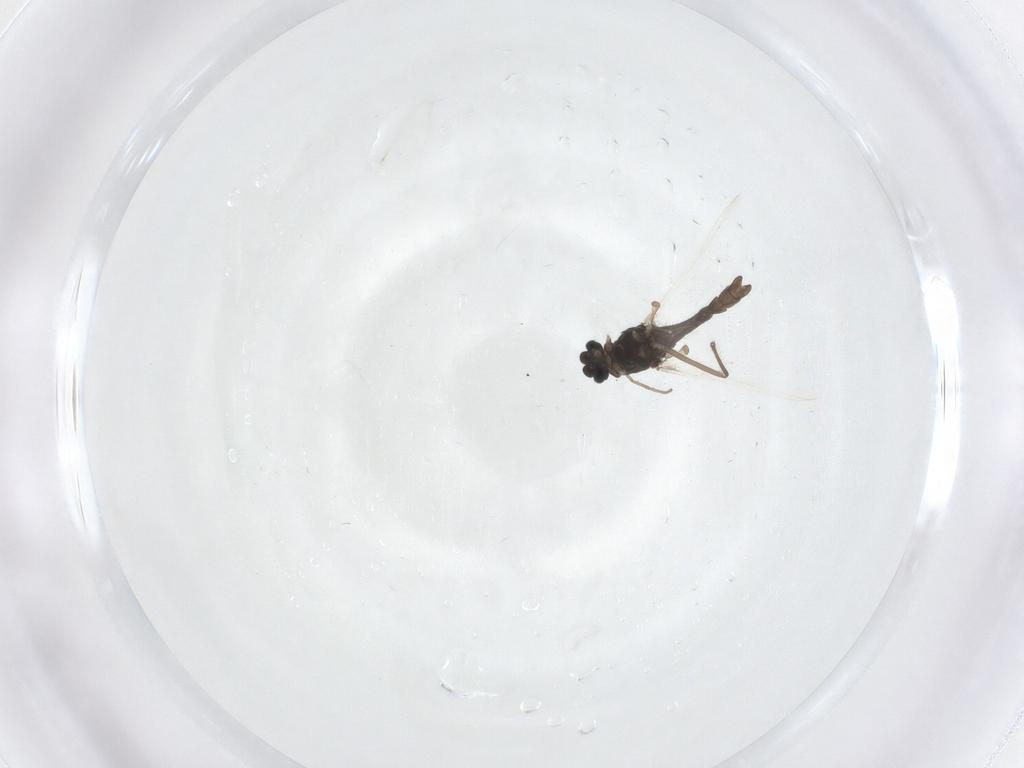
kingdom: Animalia
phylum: Arthropoda
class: Insecta
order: Diptera
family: Chironomidae
